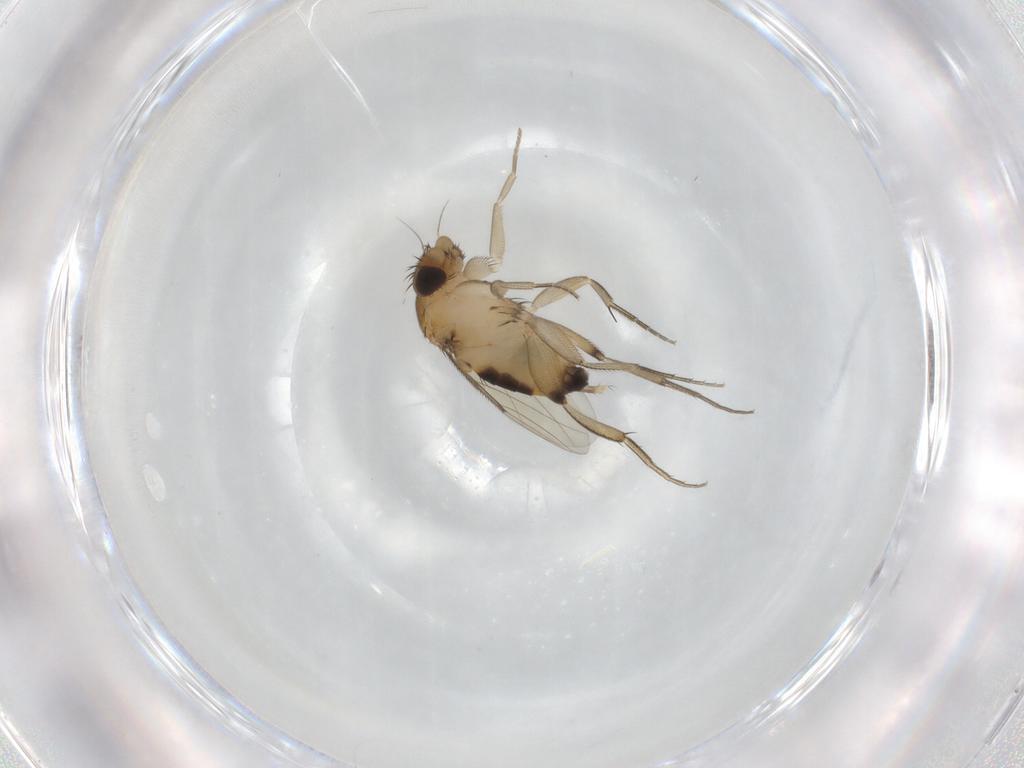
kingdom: Animalia
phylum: Arthropoda
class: Insecta
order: Diptera
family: Phoridae
